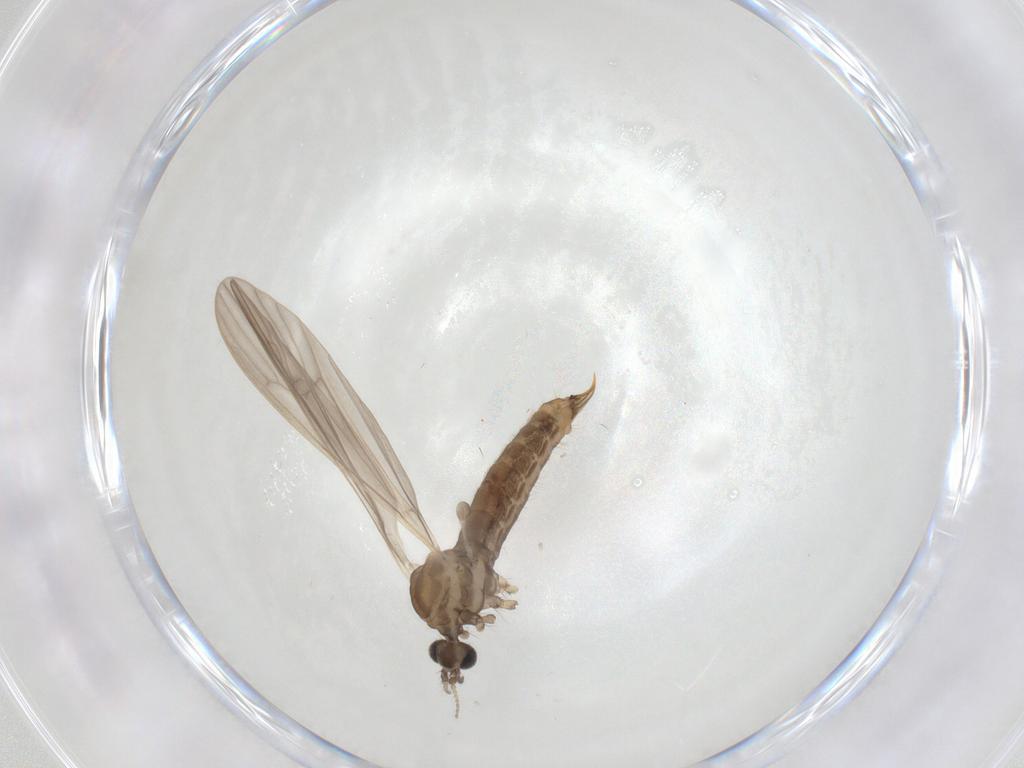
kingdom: Animalia
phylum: Arthropoda
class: Insecta
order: Diptera
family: Limoniidae
